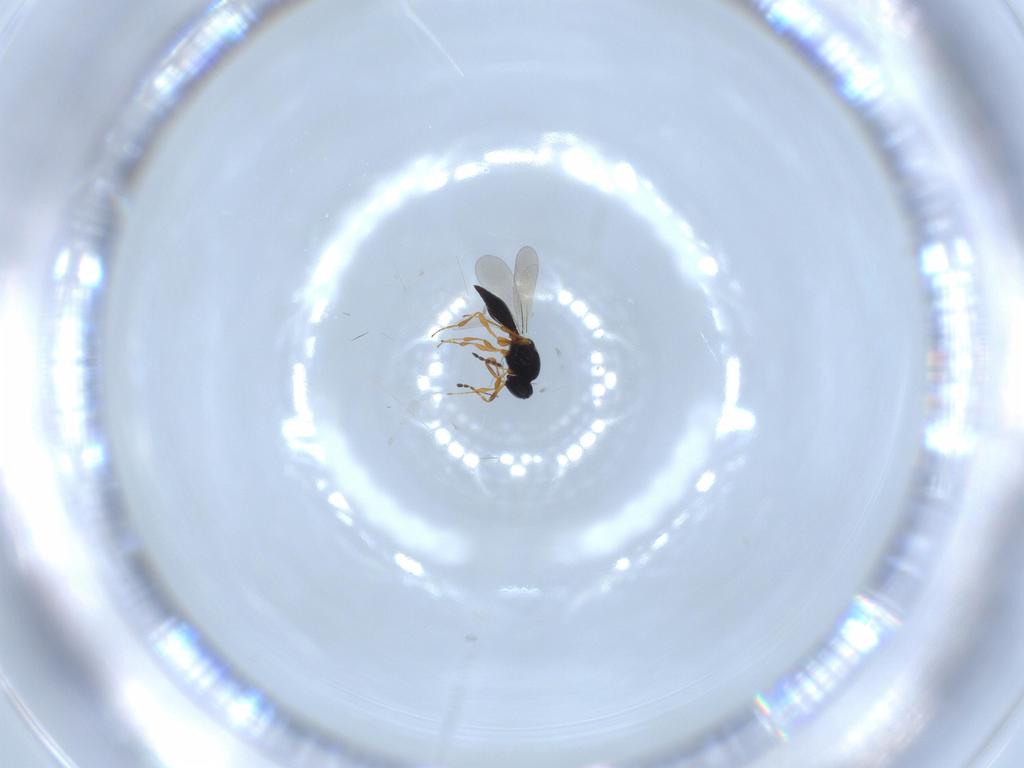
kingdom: Animalia
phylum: Arthropoda
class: Insecta
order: Hymenoptera
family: Platygastridae
